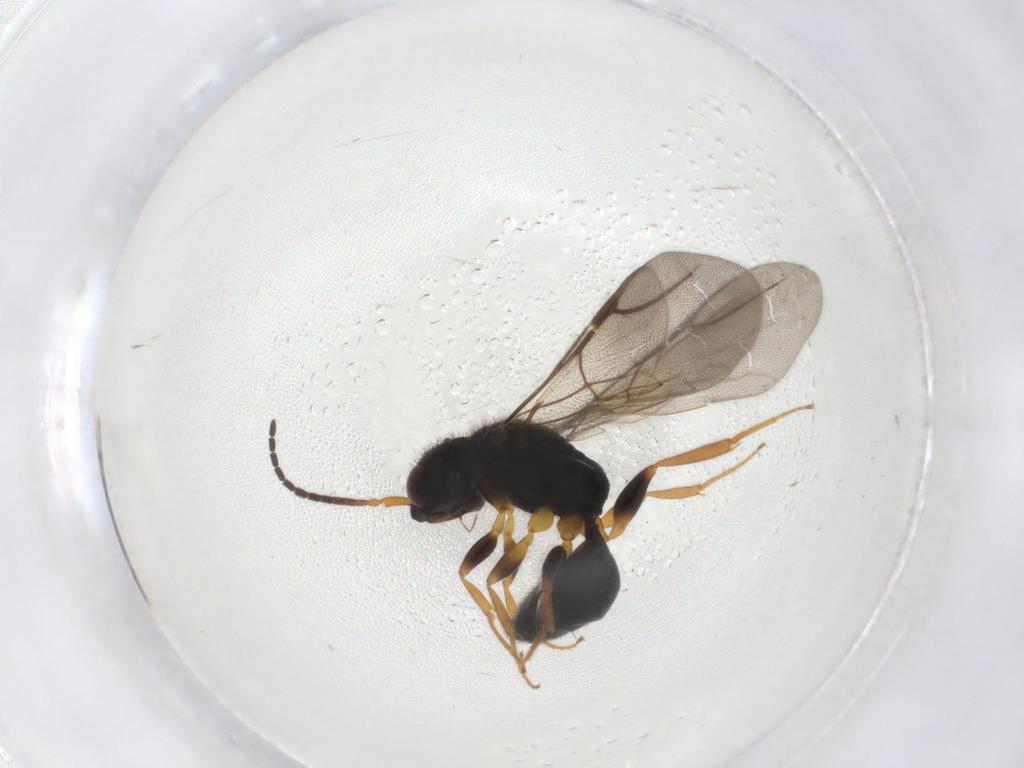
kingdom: Animalia
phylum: Arthropoda
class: Insecta
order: Hymenoptera
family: Bethylidae
